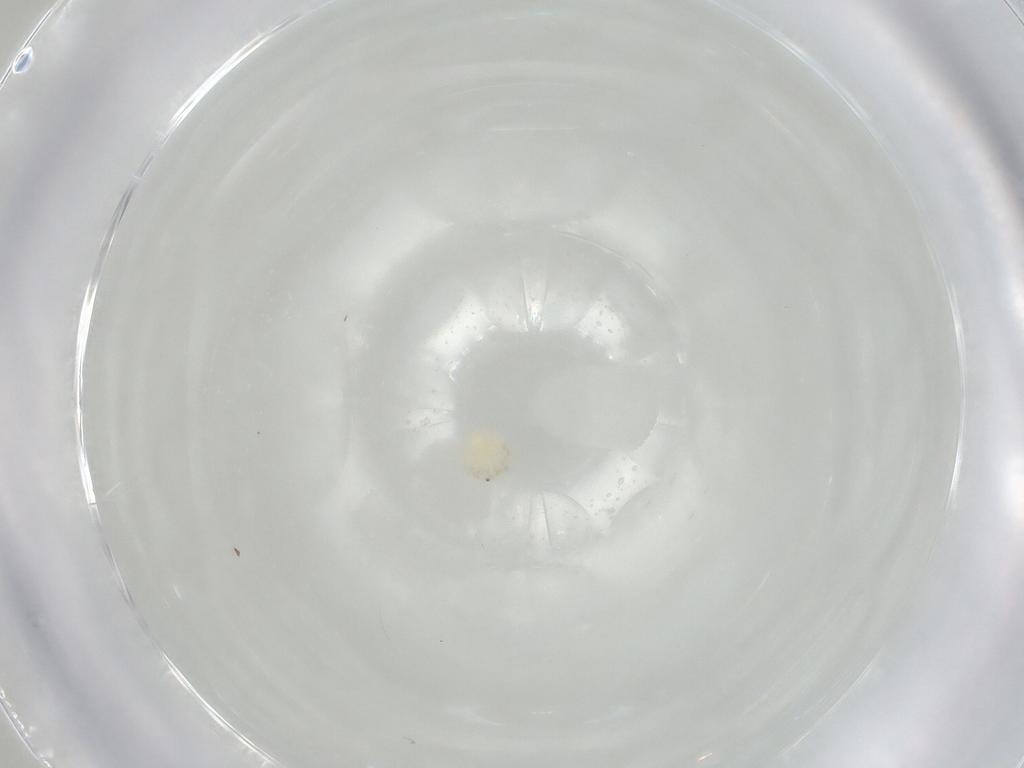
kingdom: Animalia
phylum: Arthropoda
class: Arachnida
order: Trombidiformes
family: Arrenuridae
